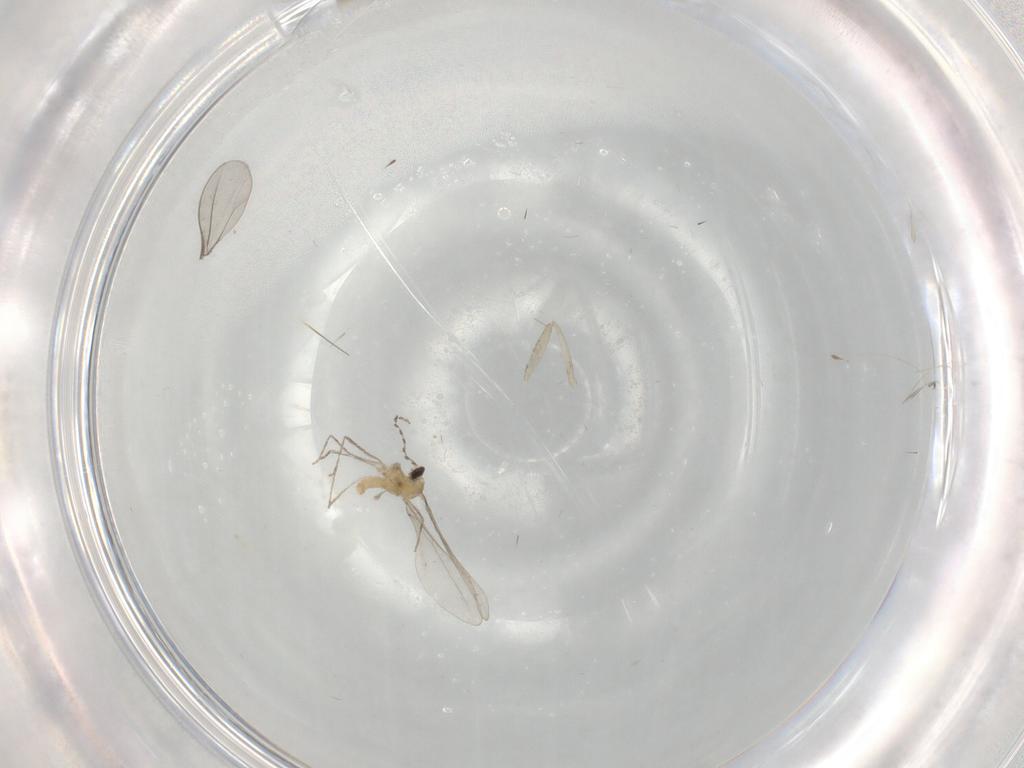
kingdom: Animalia
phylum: Arthropoda
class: Insecta
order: Diptera
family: Cecidomyiidae
